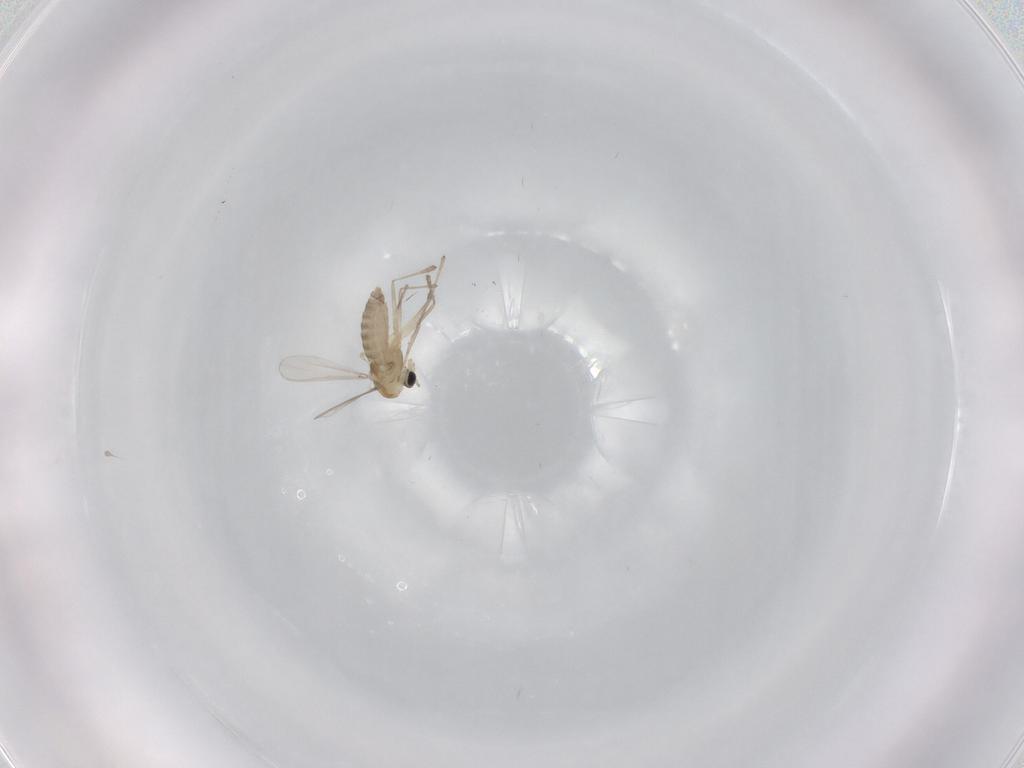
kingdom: Animalia
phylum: Arthropoda
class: Insecta
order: Diptera
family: Chironomidae
